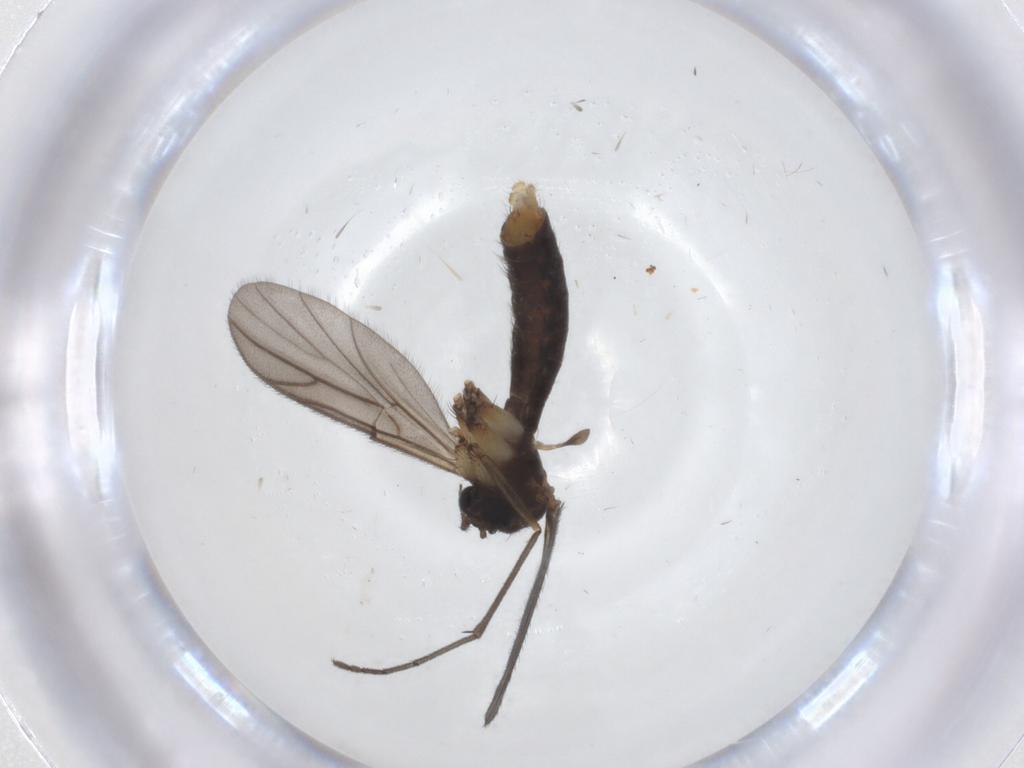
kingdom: Animalia
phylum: Arthropoda
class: Insecta
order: Diptera
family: Ditomyiidae
